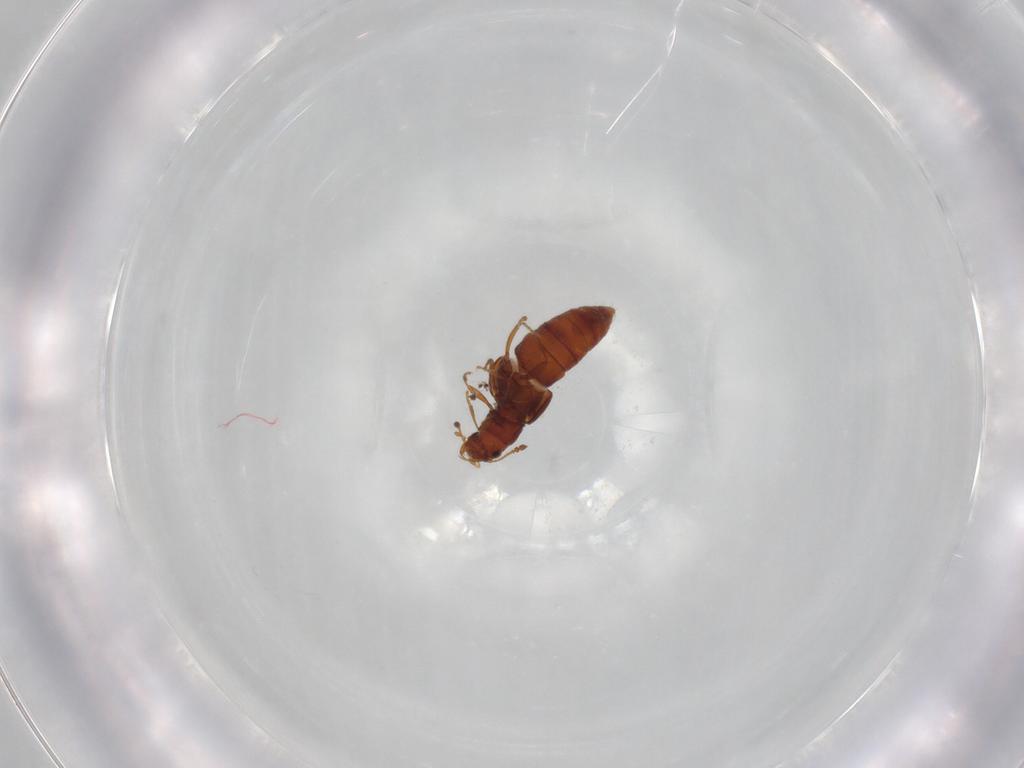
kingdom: Animalia
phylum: Arthropoda
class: Insecta
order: Coleoptera
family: Staphylinidae
